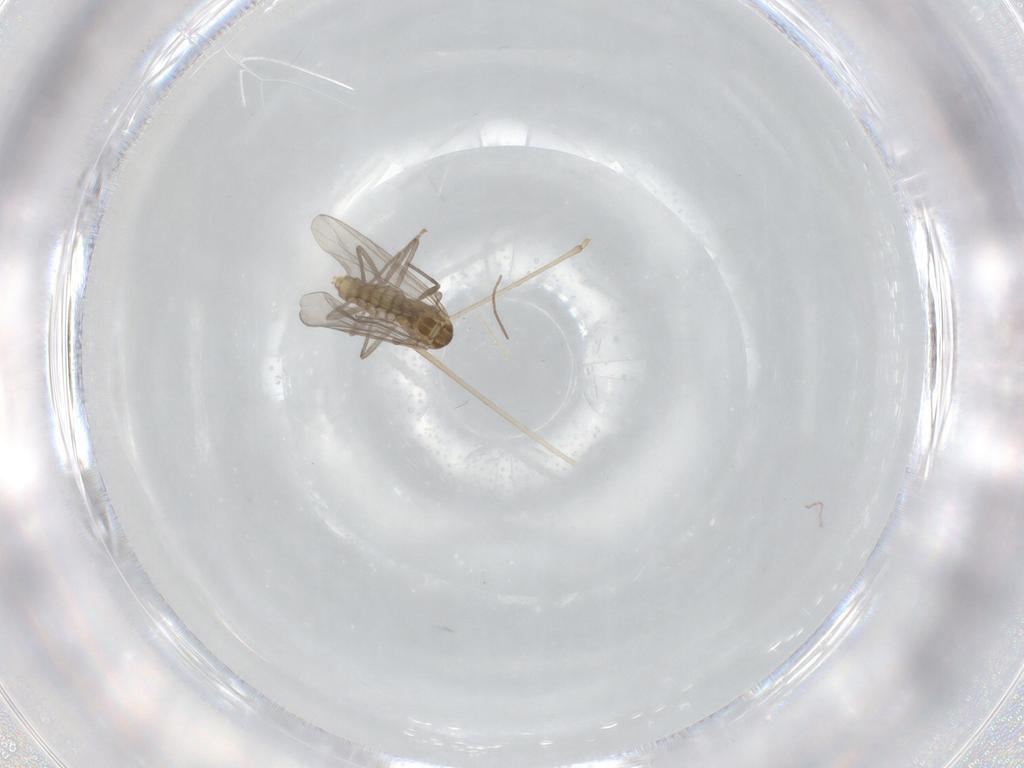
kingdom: Animalia
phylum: Arthropoda
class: Insecta
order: Diptera
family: Chironomidae
